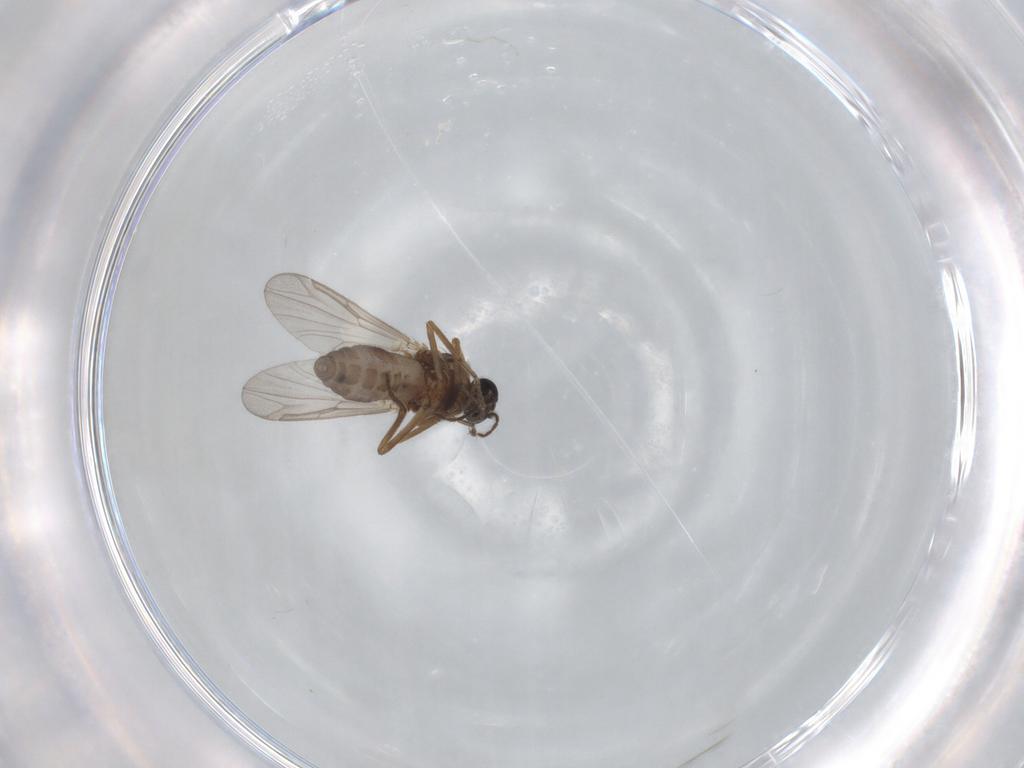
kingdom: Animalia
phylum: Arthropoda
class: Insecta
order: Diptera
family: Ceratopogonidae
